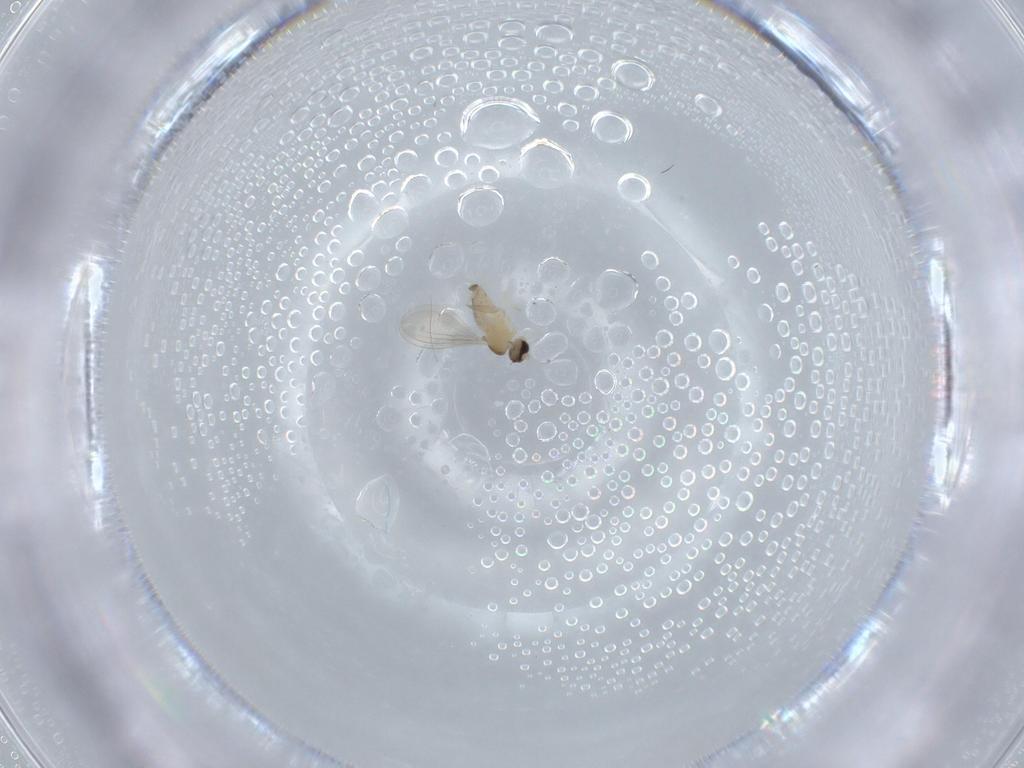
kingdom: Animalia
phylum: Arthropoda
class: Insecta
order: Diptera
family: Cecidomyiidae
